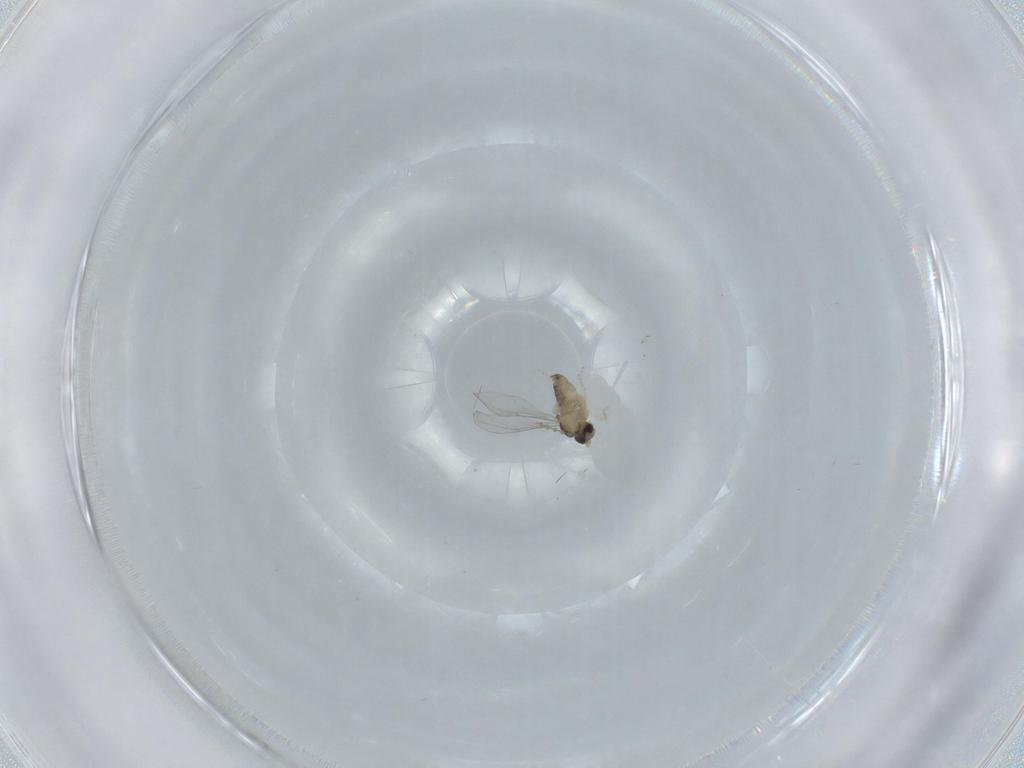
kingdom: Animalia
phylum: Arthropoda
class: Insecta
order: Diptera
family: Cecidomyiidae
